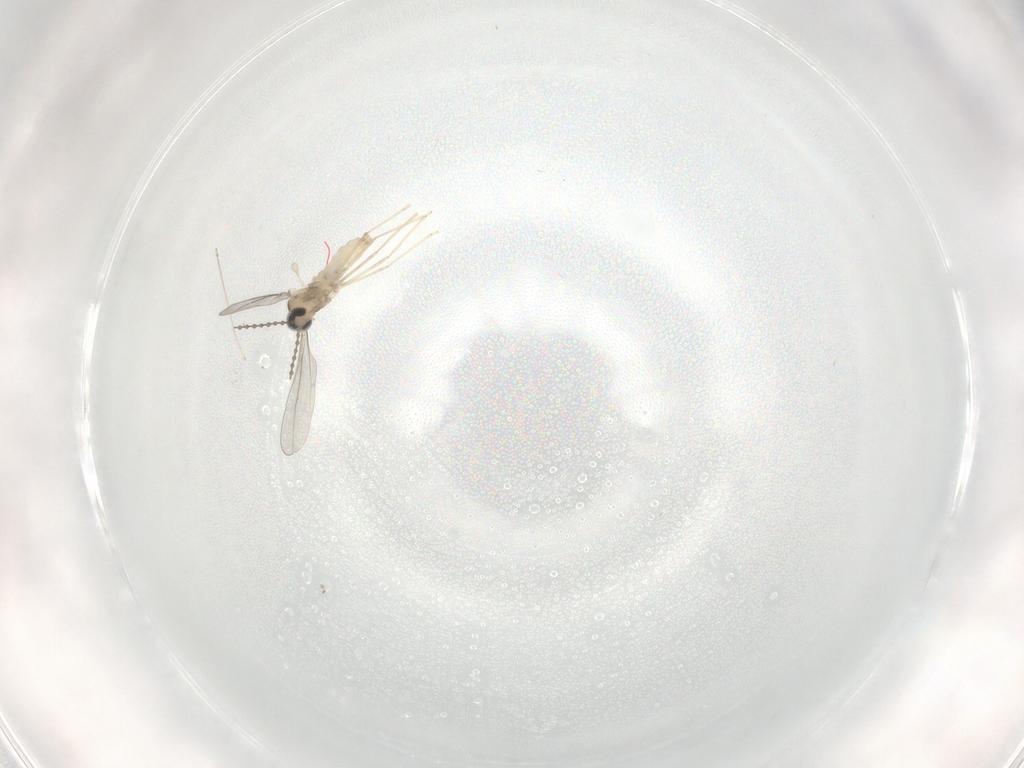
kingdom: Animalia
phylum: Arthropoda
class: Insecta
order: Diptera
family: Cecidomyiidae
